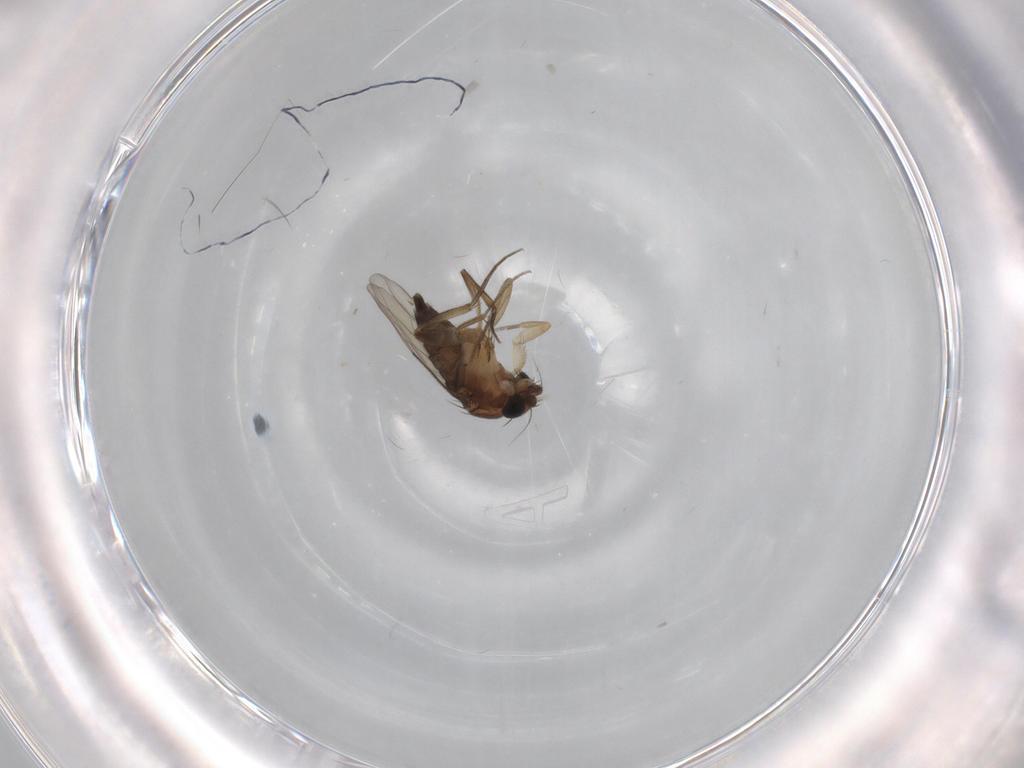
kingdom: Animalia
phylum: Arthropoda
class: Insecta
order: Diptera
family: Phoridae
